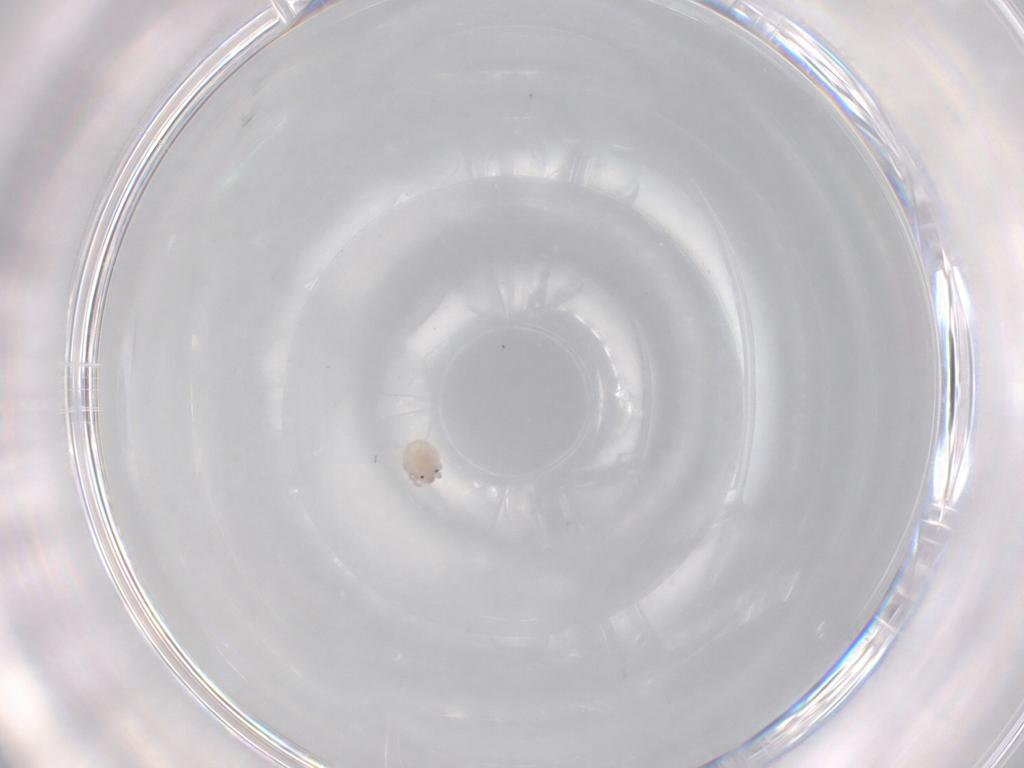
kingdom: Animalia
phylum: Arthropoda
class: Arachnida
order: Trombidiformes
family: Lebertiidae
